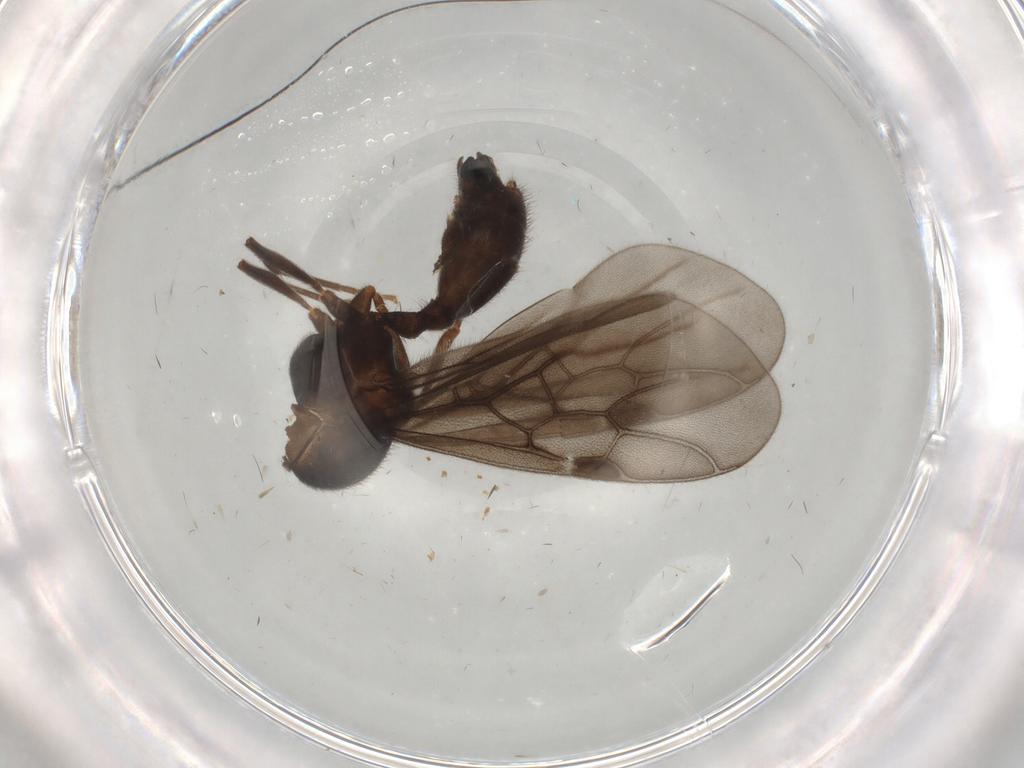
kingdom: Animalia
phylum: Arthropoda
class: Insecta
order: Hymenoptera
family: Formicidae
